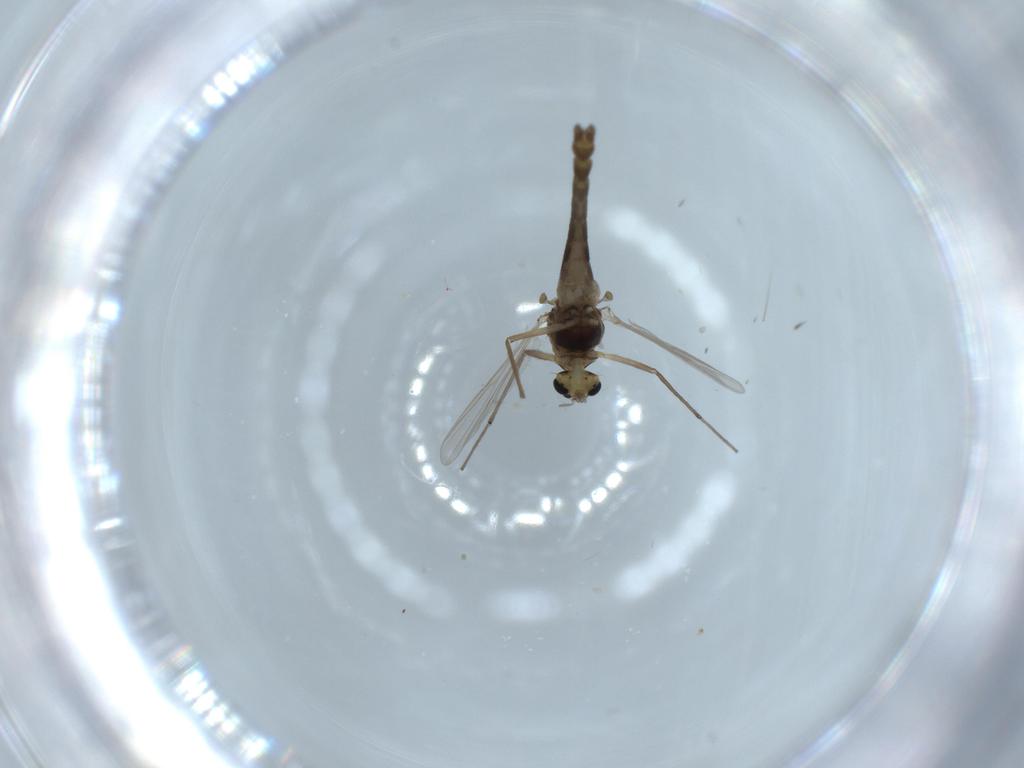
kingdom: Animalia
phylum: Arthropoda
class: Insecta
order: Diptera
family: Chironomidae
